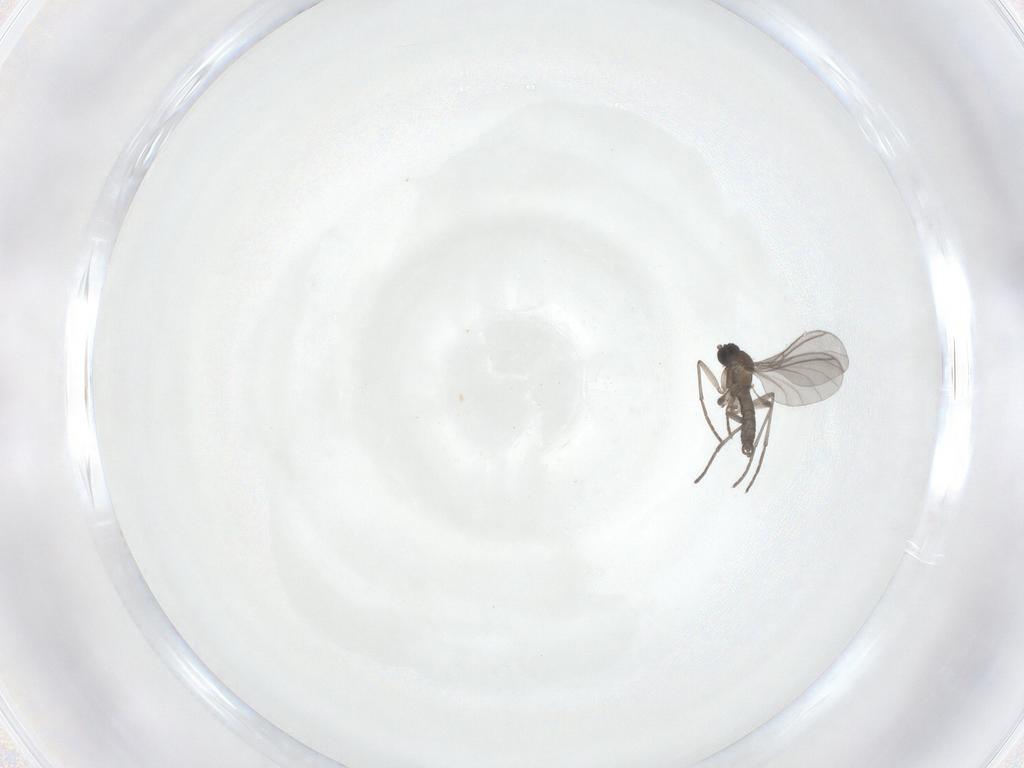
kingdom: Animalia
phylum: Arthropoda
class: Insecta
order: Diptera
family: Sciaridae
